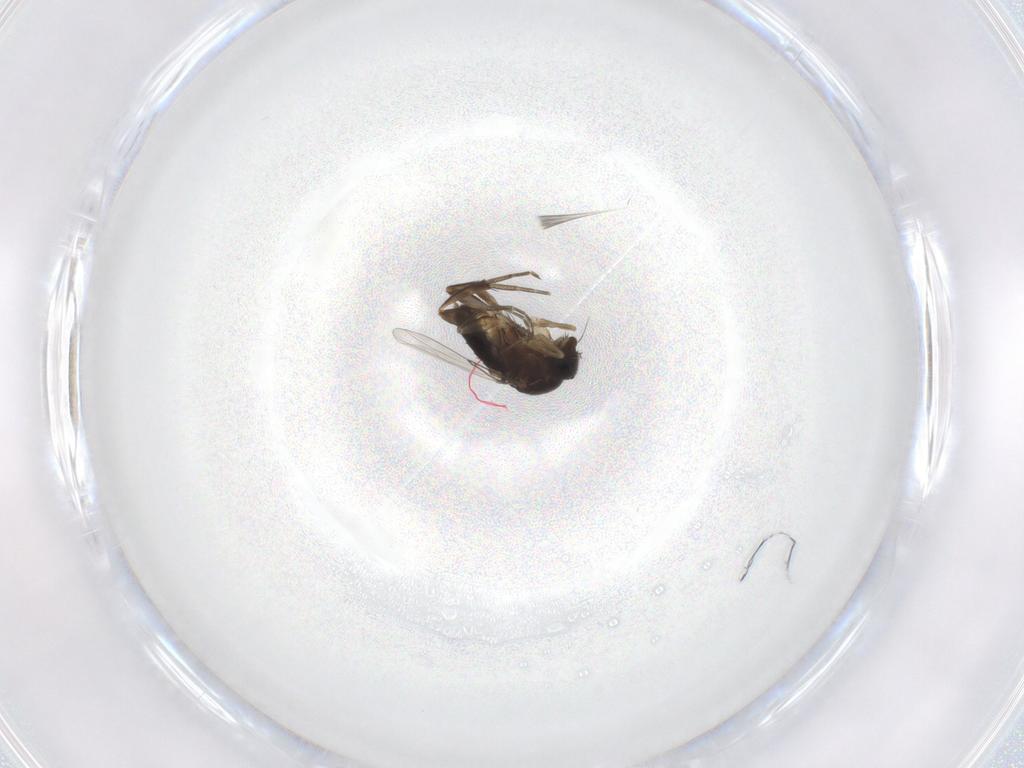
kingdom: Animalia
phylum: Arthropoda
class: Insecta
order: Diptera
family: Phoridae
